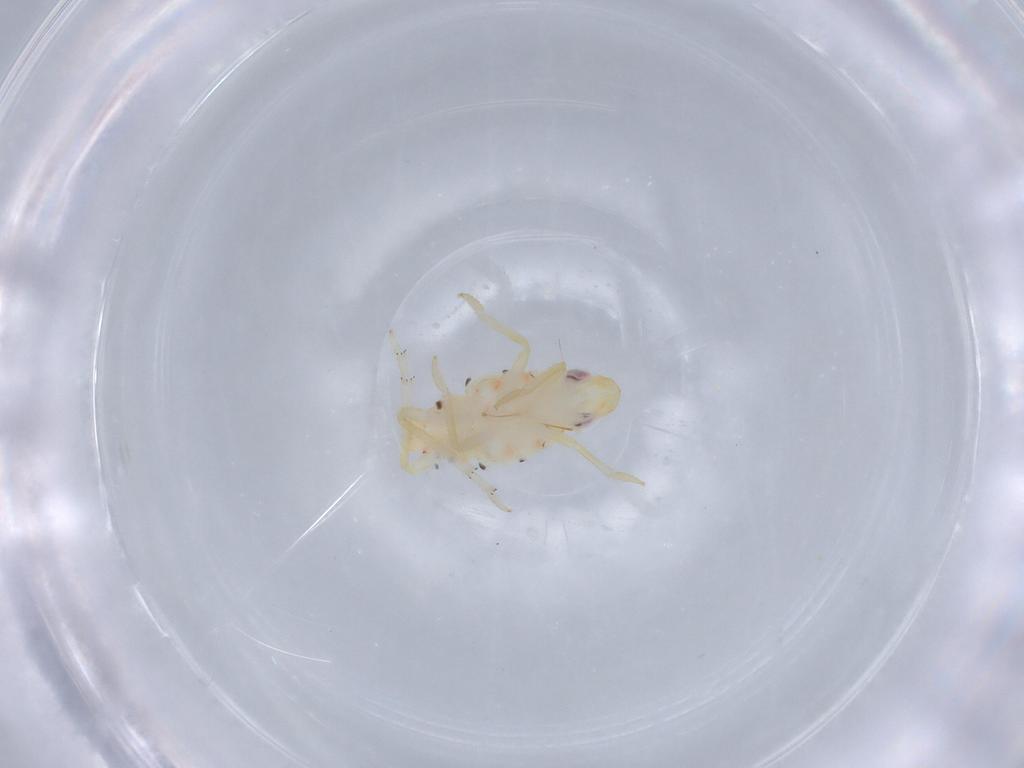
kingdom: Animalia
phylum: Arthropoda
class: Insecta
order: Hemiptera
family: Tropiduchidae
